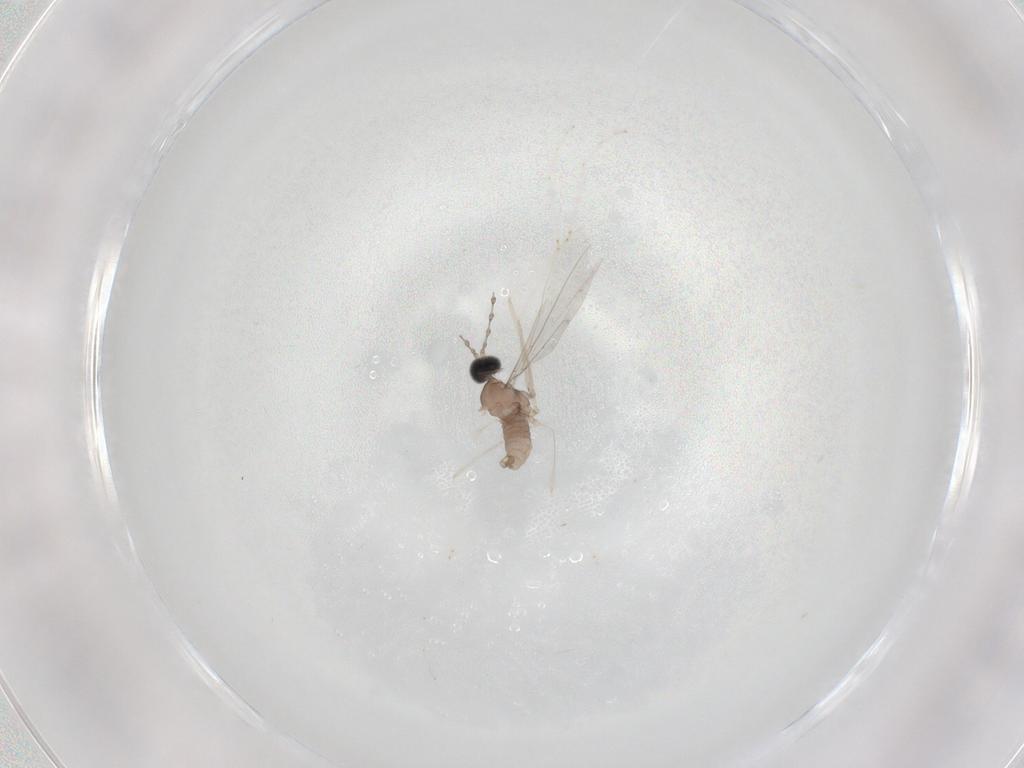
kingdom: Animalia
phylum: Arthropoda
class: Insecta
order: Diptera
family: Cecidomyiidae
